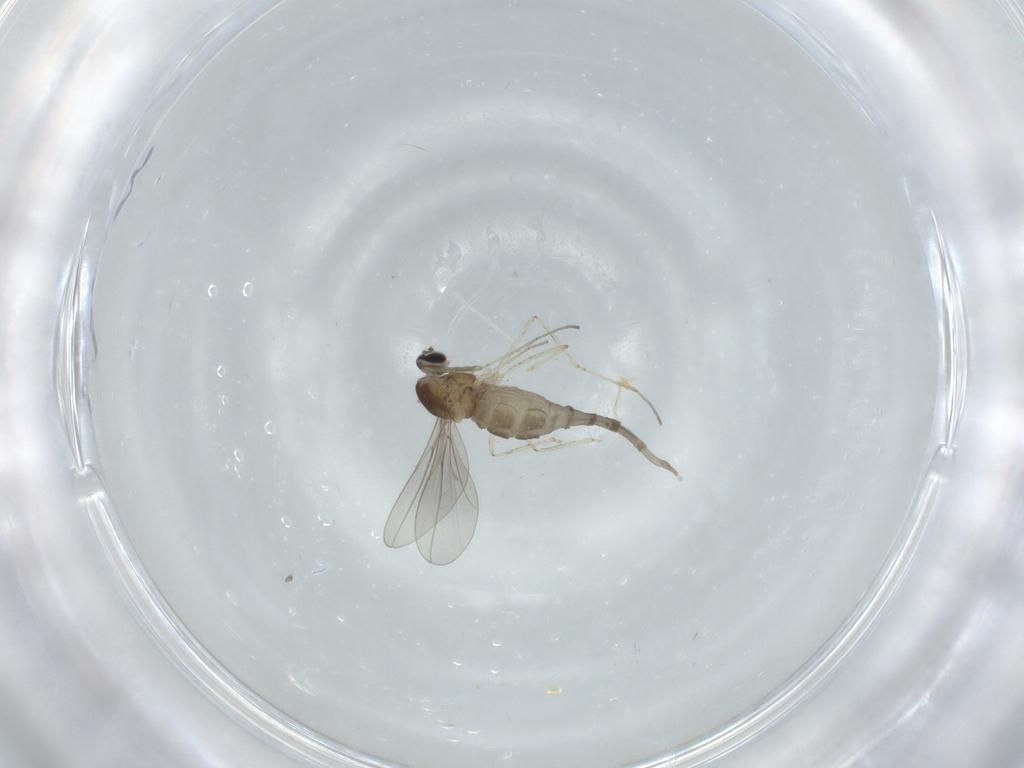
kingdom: Animalia
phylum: Arthropoda
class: Insecta
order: Diptera
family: Cecidomyiidae
